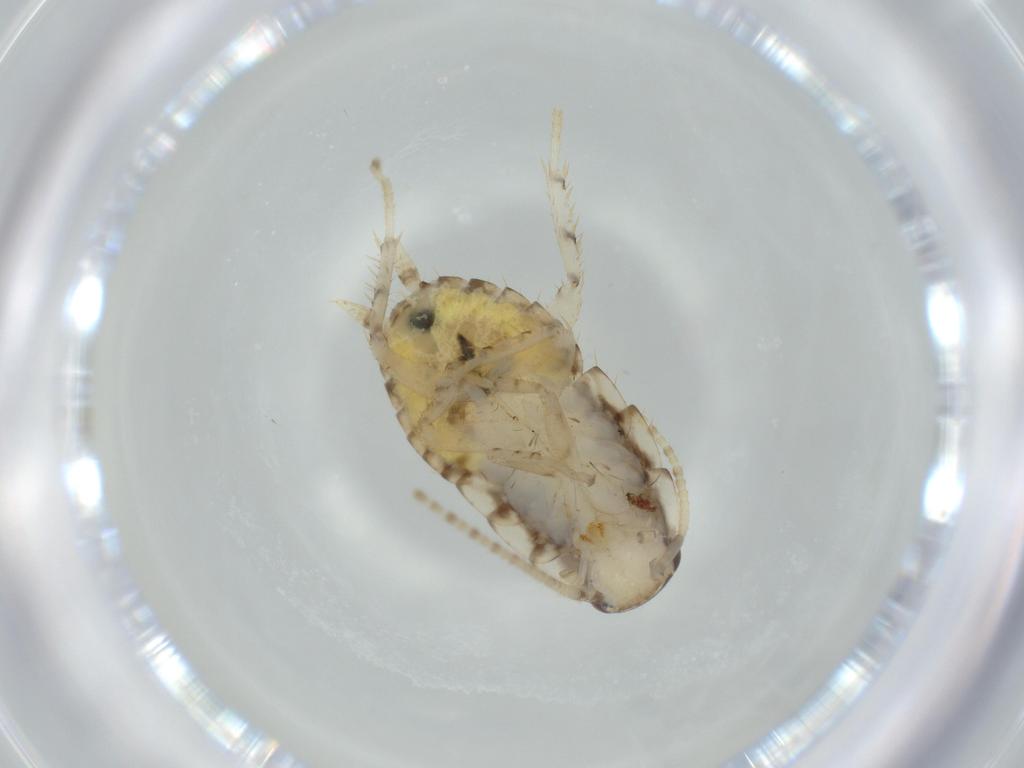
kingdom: Animalia
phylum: Arthropoda
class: Insecta
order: Blattodea
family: Ectobiidae
